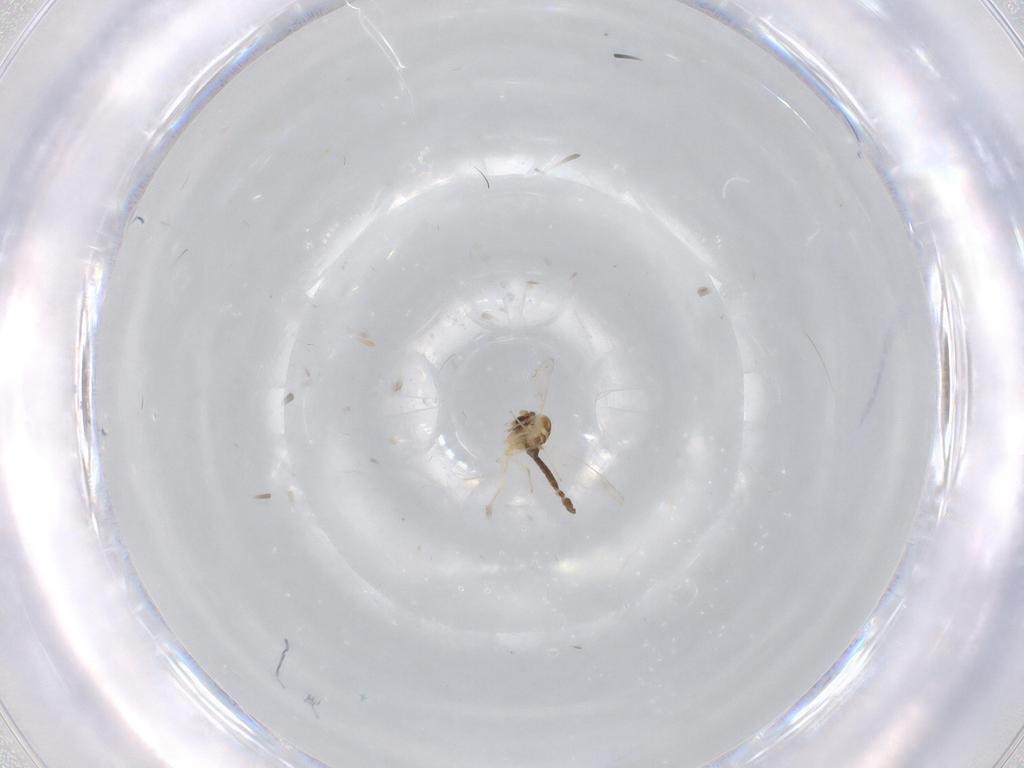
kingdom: Animalia
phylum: Arthropoda
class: Insecta
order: Diptera
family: Chironomidae
